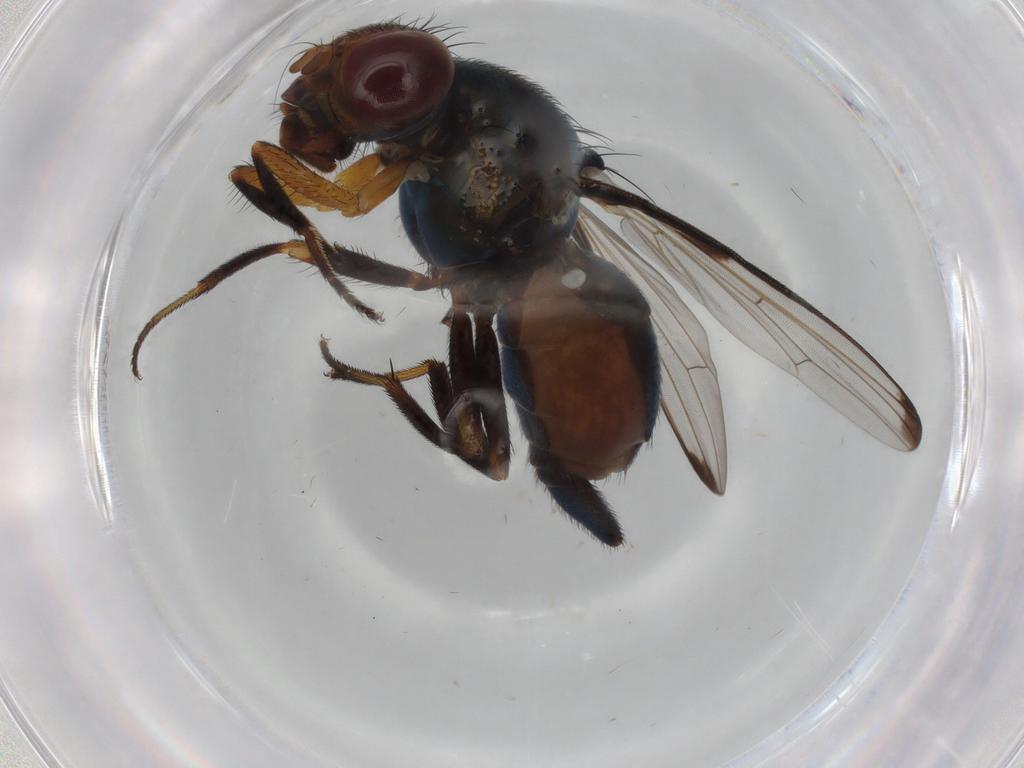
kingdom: Animalia
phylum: Arthropoda
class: Insecta
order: Diptera
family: Ulidiidae
